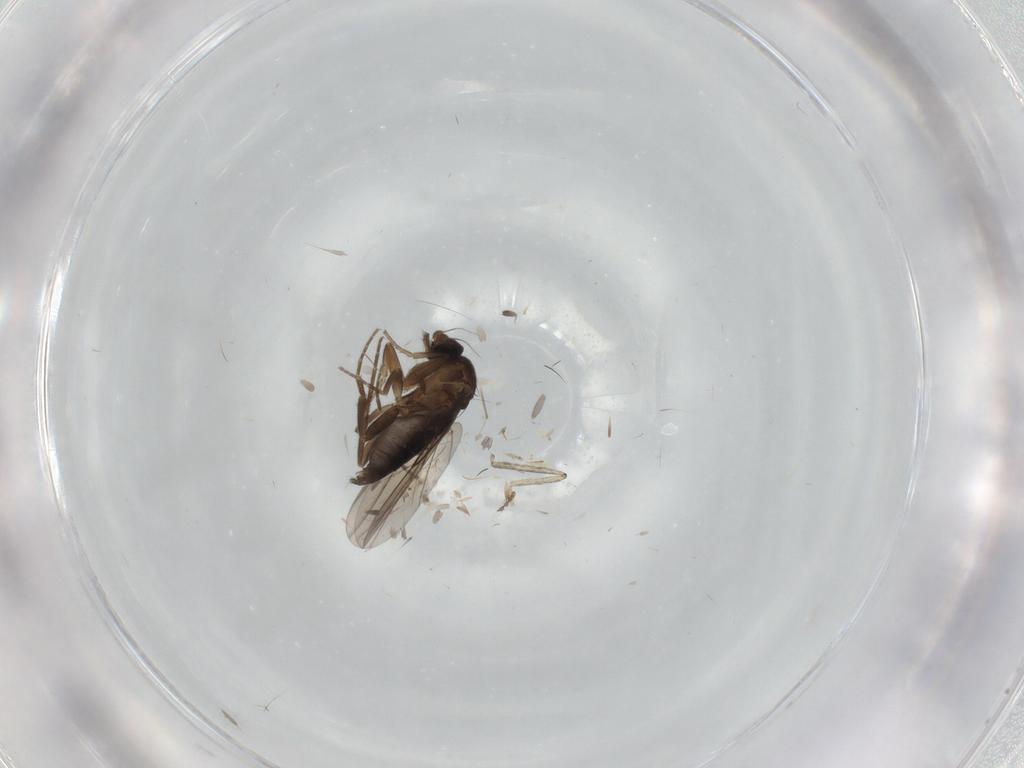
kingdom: Animalia
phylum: Arthropoda
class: Insecta
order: Diptera
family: Cecidomyiidae
